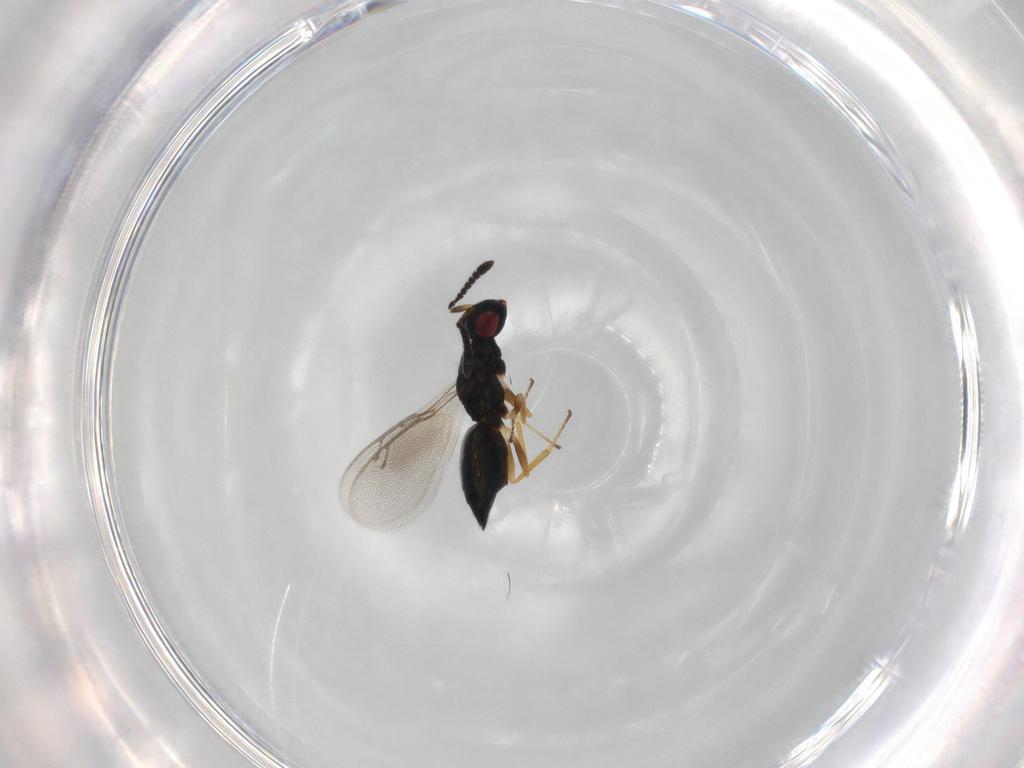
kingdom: Animalia
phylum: Arthropoda
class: Insecta
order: Hymenoptera
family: Pteromalidae
